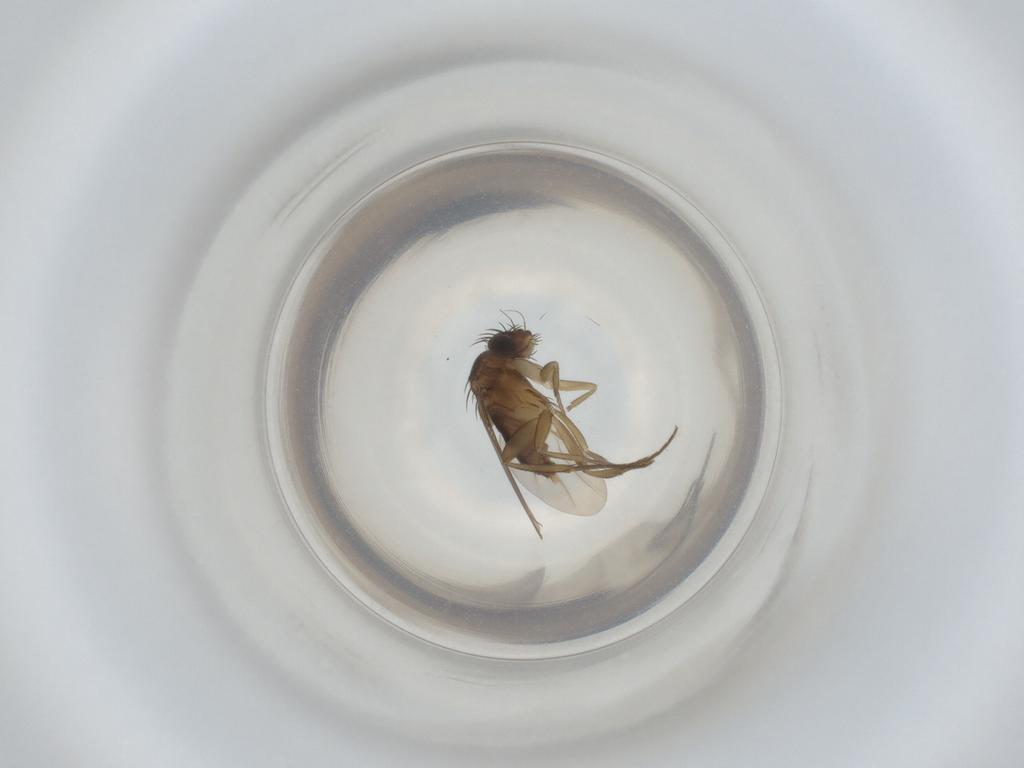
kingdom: Animalia
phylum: Arthropoda
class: Insecta
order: Diptera
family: Phoridae
